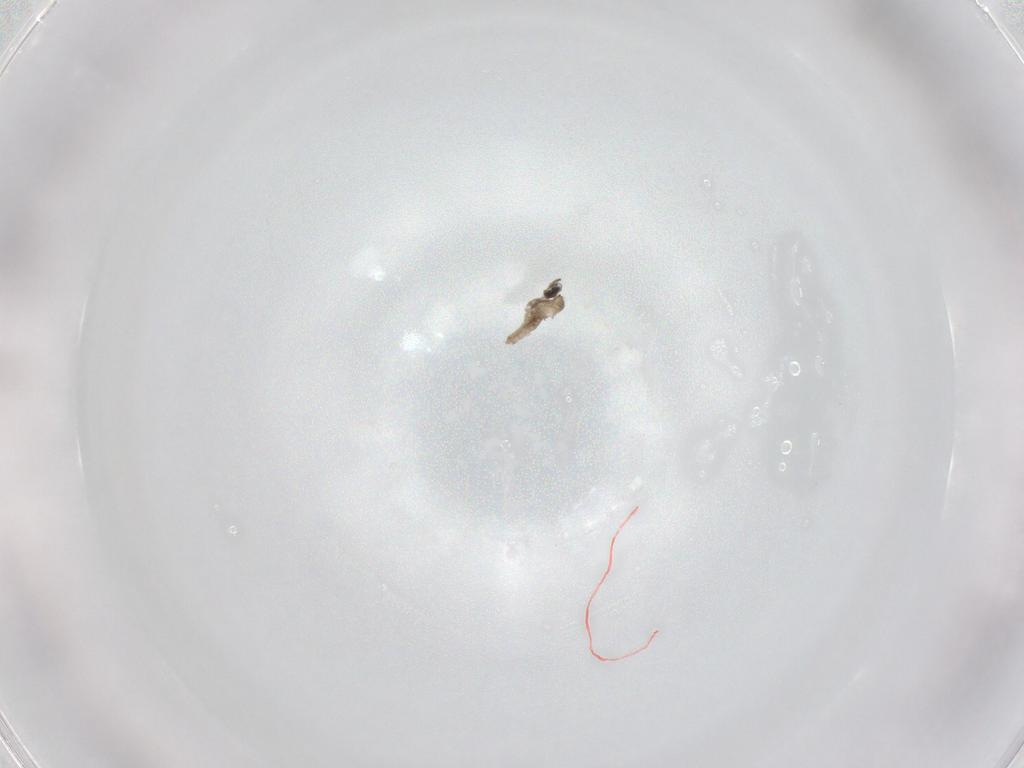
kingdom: Animalia
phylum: Arthropoda
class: Insecta
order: Diptera
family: Cecidomyiidae
